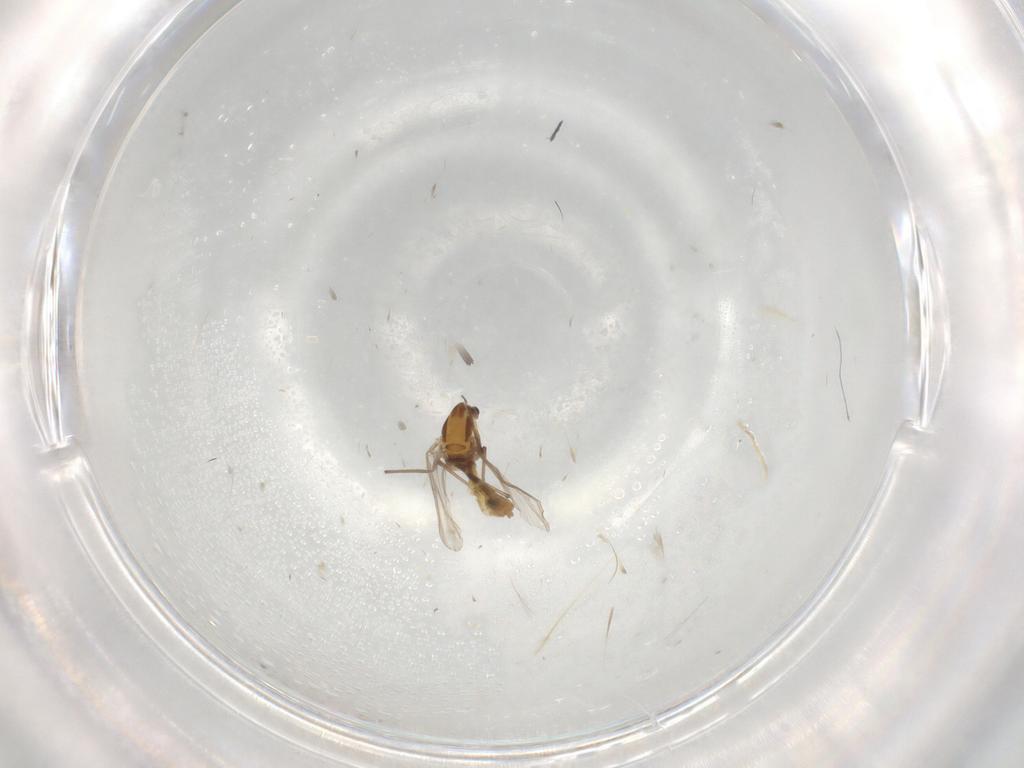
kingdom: Animalia
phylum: Arthropoda
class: Insecta
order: Diptera
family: Glossinidae
